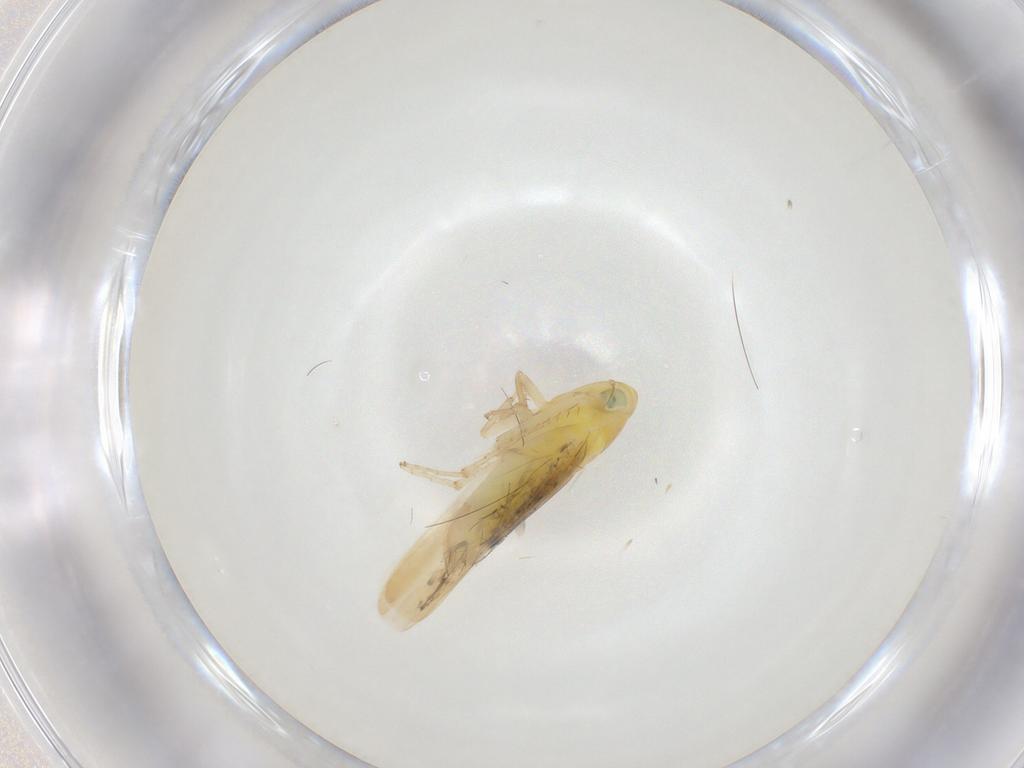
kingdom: Animalia
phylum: Arthropoda
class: Insecta
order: Hemiptera
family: Cicadellidae
